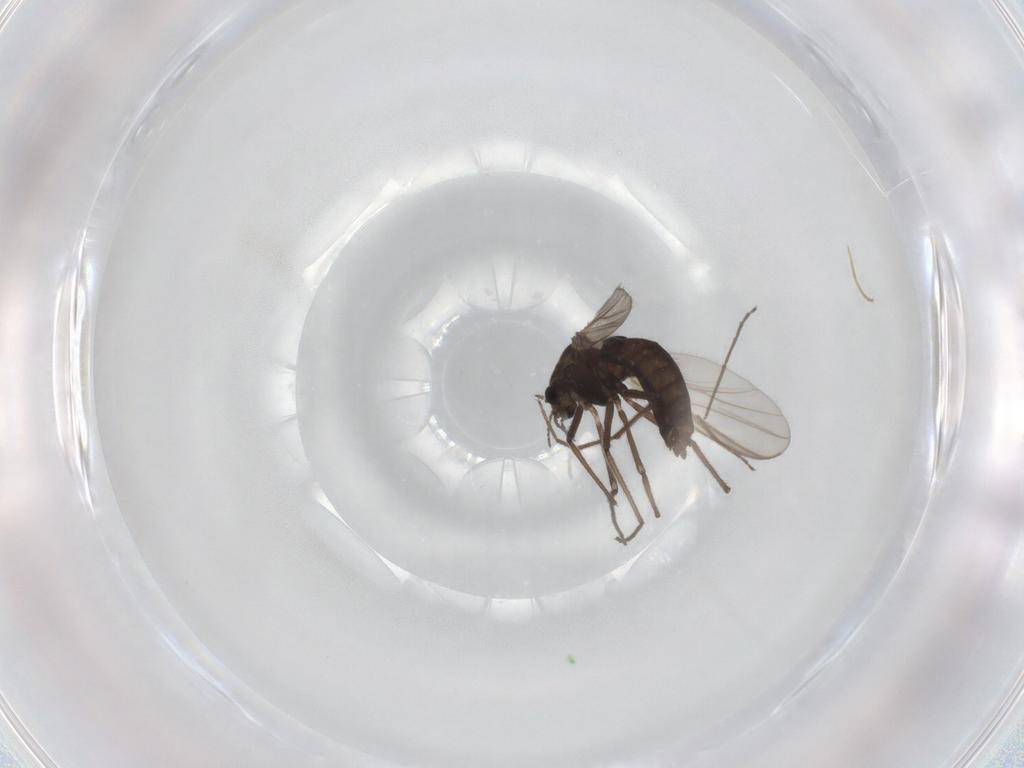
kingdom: Animalia
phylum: Arthropoda
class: Insecta
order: Diptera
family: Chironomidae
